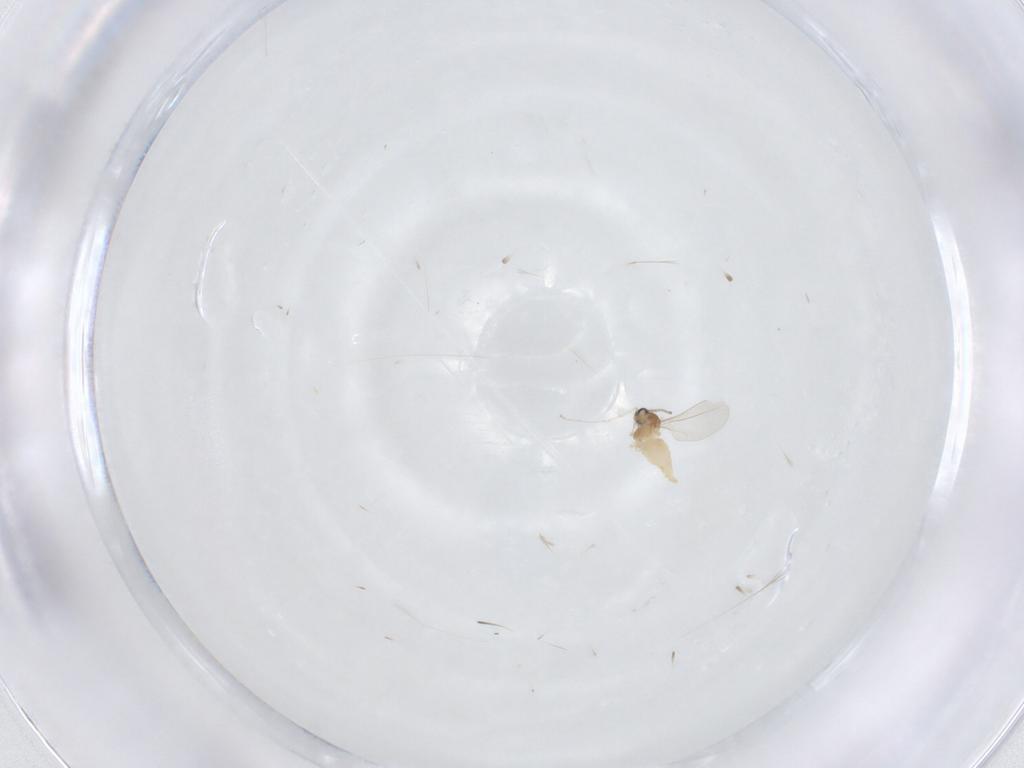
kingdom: Animalia
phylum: Arthropoda
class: Insecta
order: Diptera
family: Cecidomyiidae
